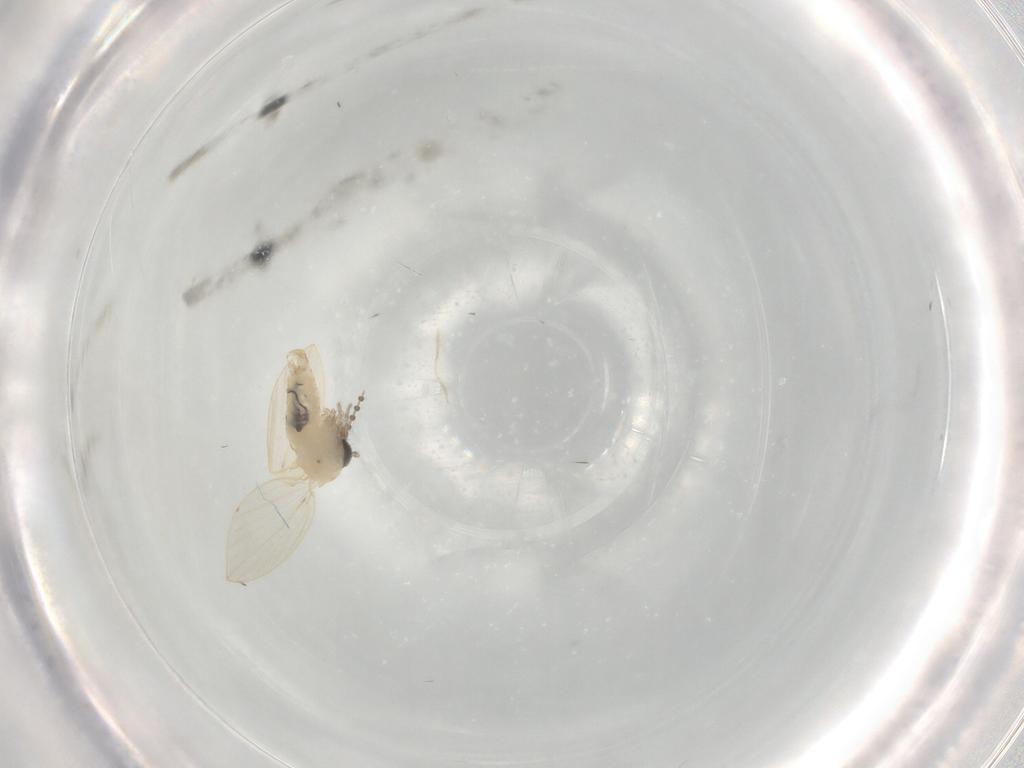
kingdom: Animalia
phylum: Arthropoda
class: Insecta
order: Diptera
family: Psychodidae
